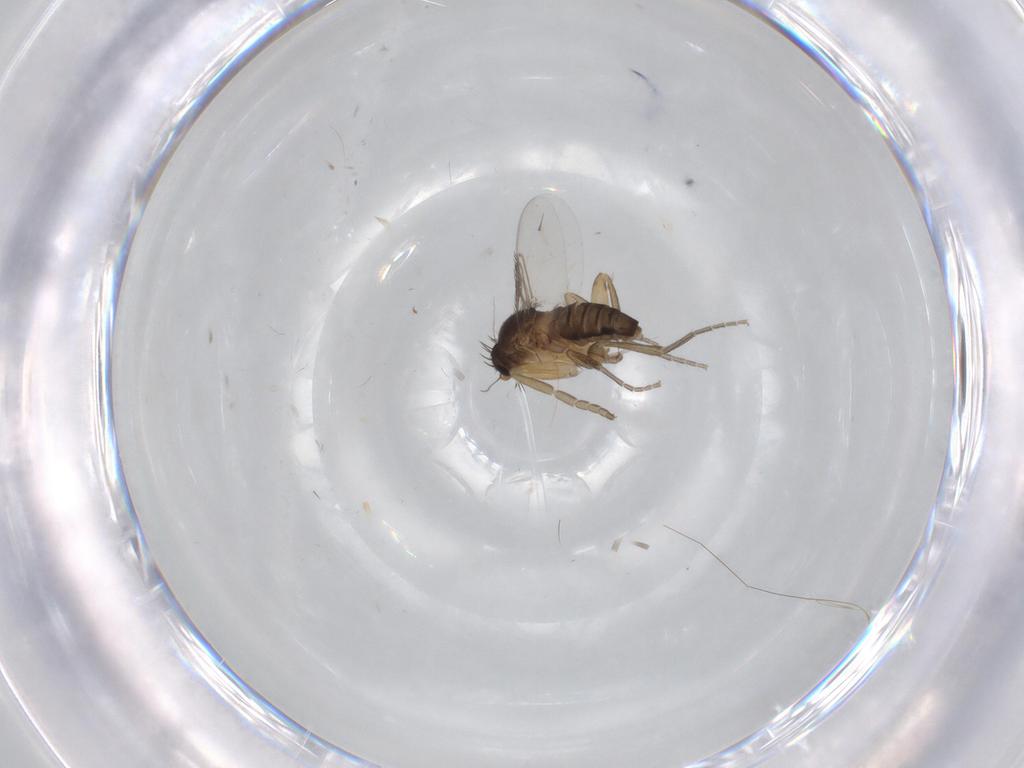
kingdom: Animalia
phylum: Arthropoda
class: Insecta
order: Diptera
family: Phoridae
